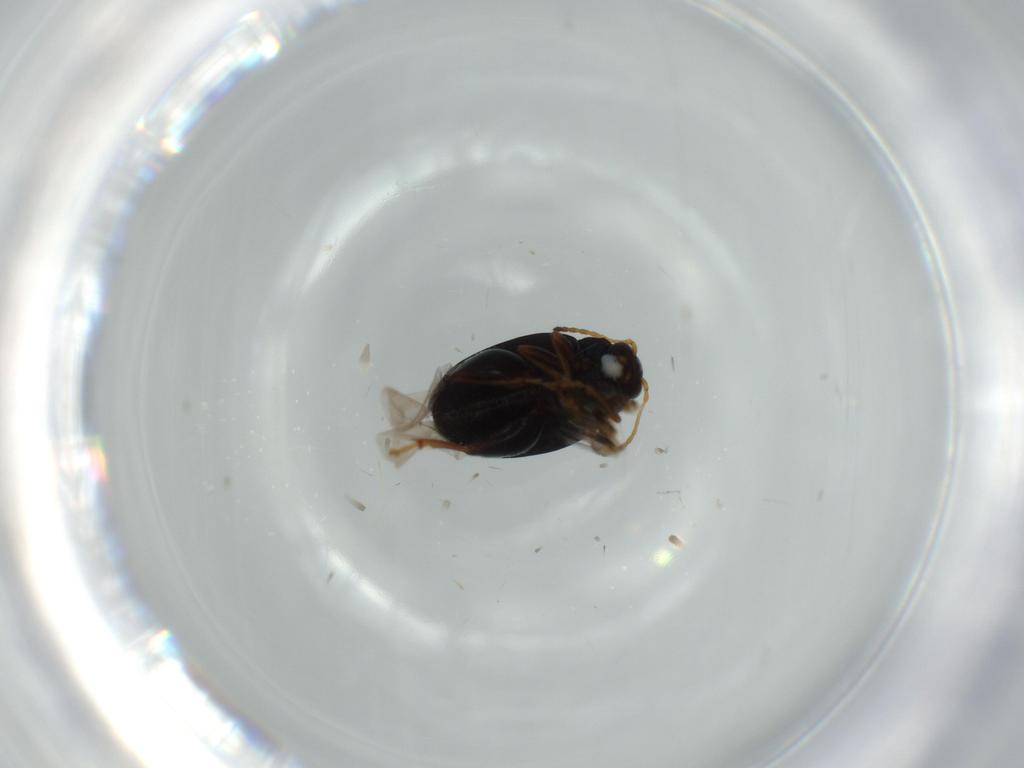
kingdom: Animalia
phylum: Arthropoda
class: Insecta
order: Coleoptera
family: Chrysomelidae
